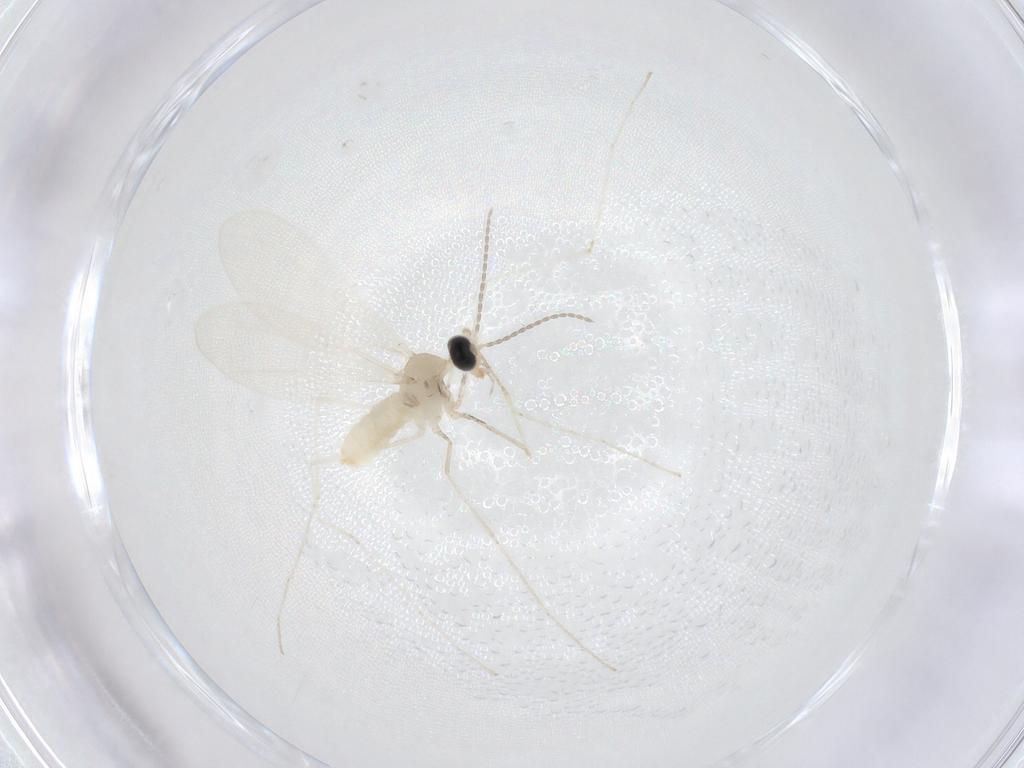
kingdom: Animalia
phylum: Arthropoda
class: Insecta
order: Diptera
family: Cecidomyiidae
